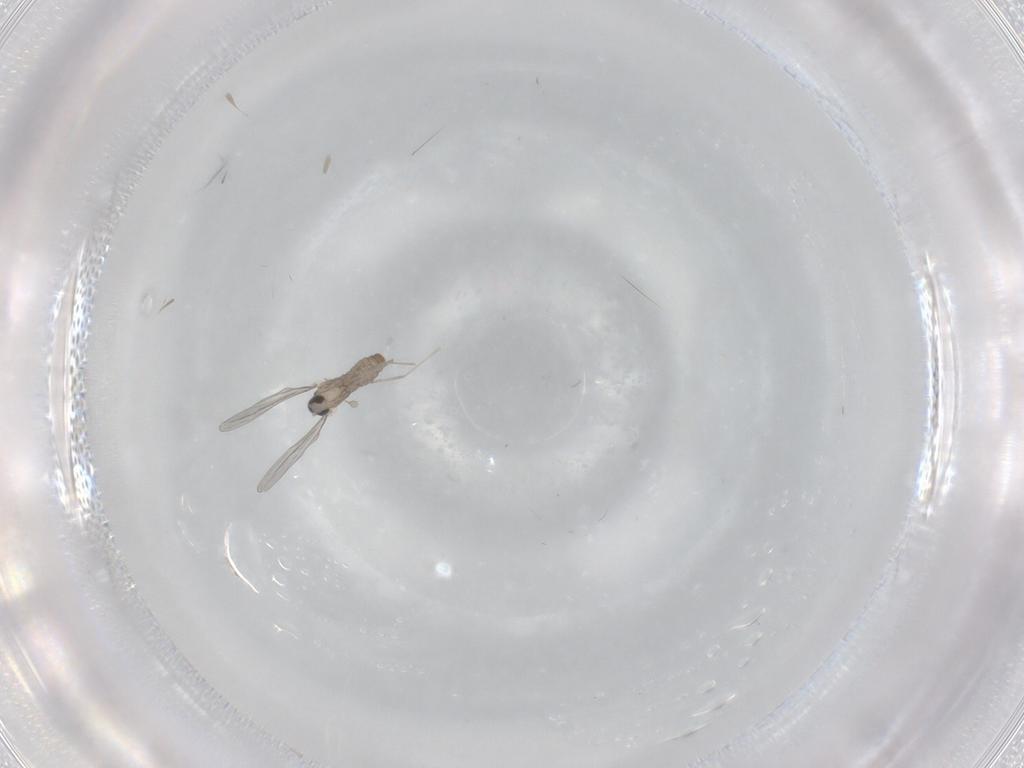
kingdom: Animalia
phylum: Arthropoda
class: Insecta
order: Diptera
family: Cecidomyiidae
